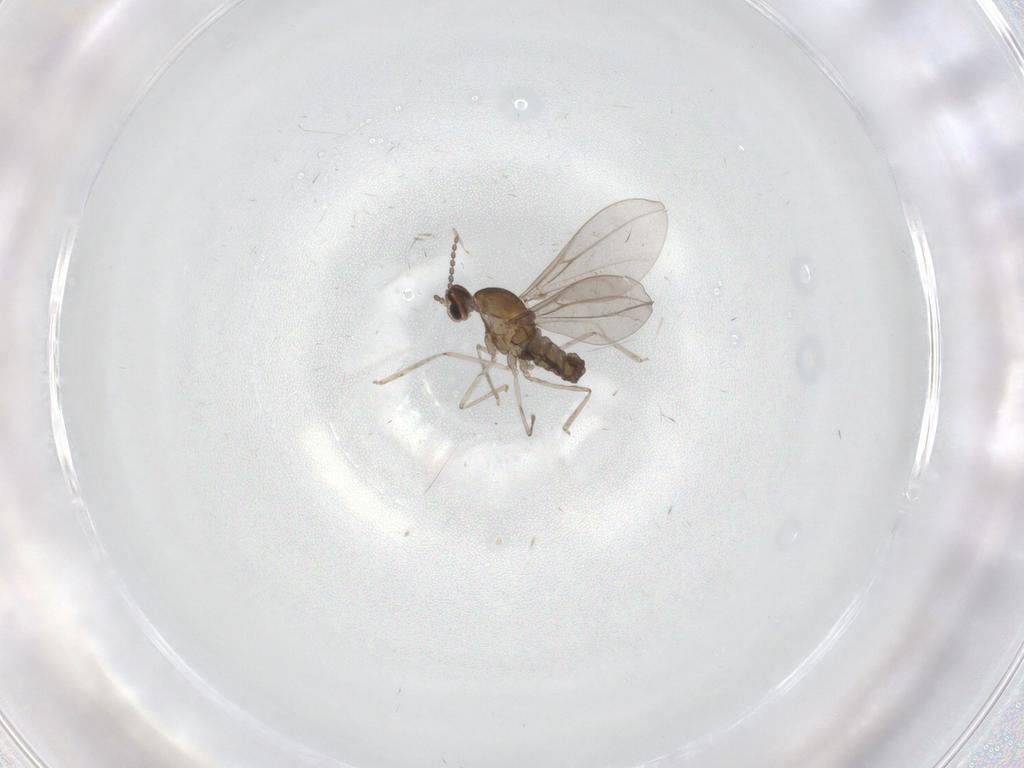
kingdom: Animalia
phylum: Arthropoda
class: Insecta
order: Diptera
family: Cecidomyiidae
